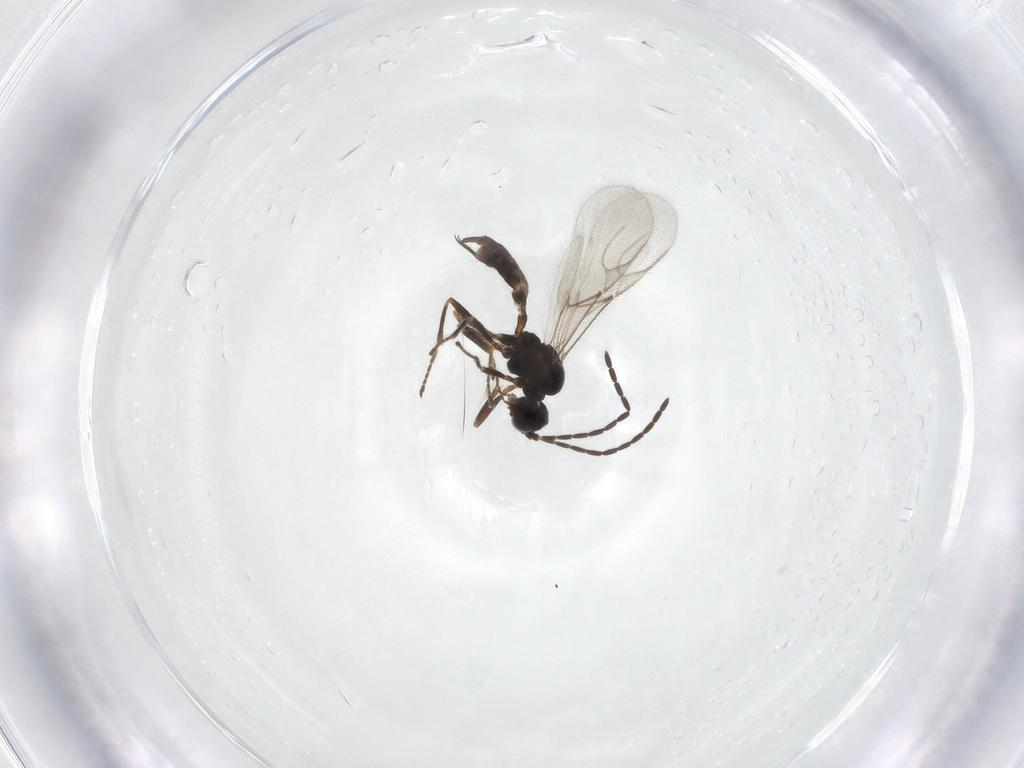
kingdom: Animalia
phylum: Arthropoda
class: Insecta
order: Hymenoptera
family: Braconidae
